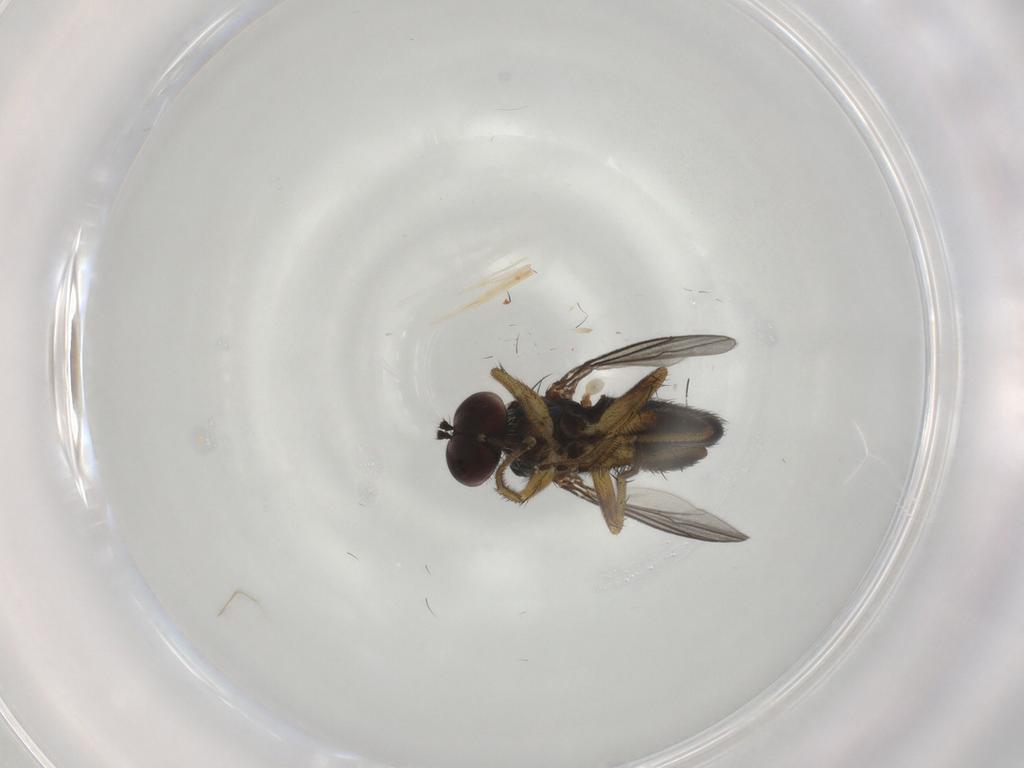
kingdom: Animalia
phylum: Arthropoda
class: Insecta
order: Diptera
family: Dolichopodidae
